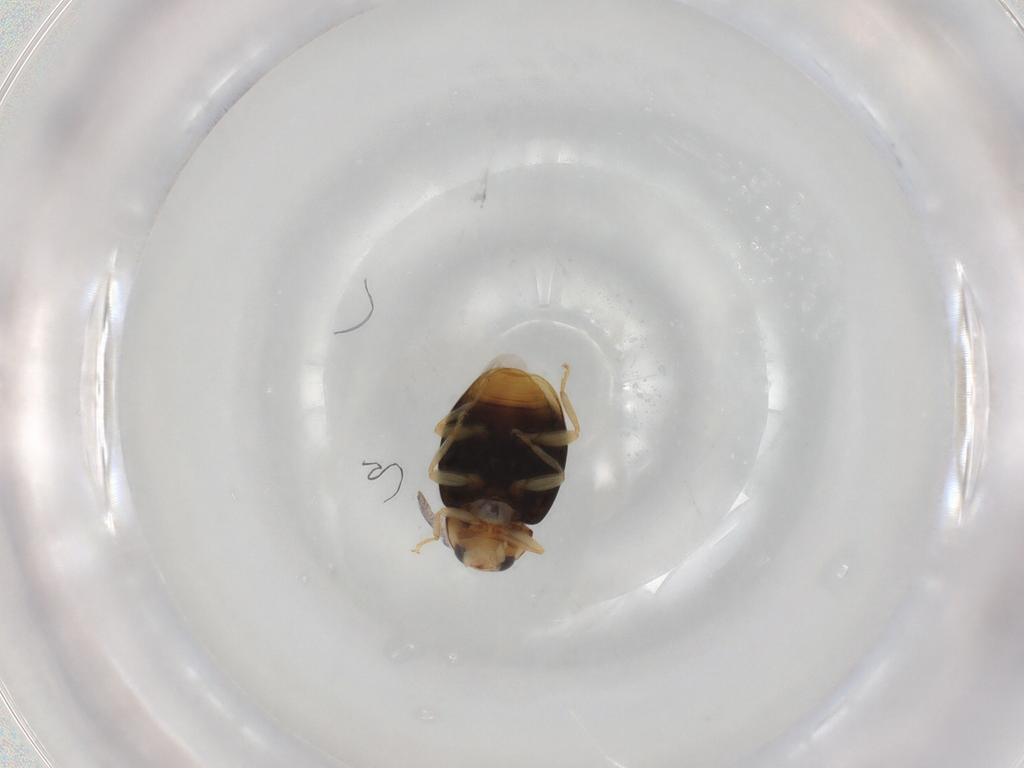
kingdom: Animalia
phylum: Arthropoda
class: Insecta
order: Coleoptera
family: Coccinellidae
